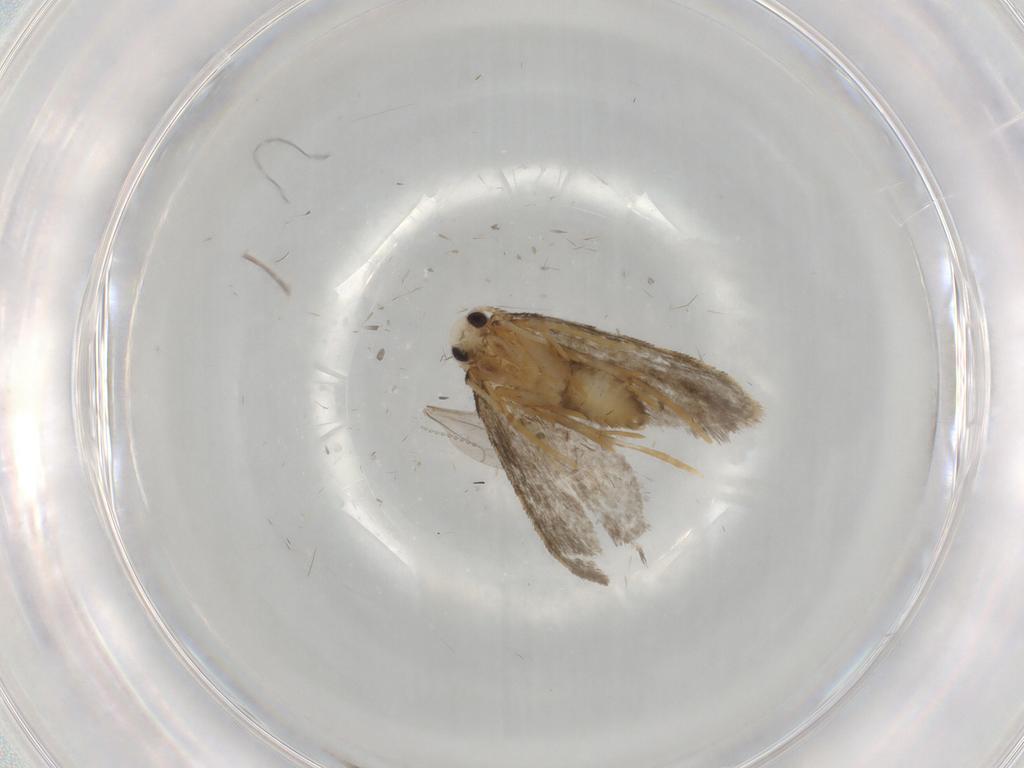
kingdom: Animalia
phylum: Arthropoda
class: Insecta
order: Lepidoptera
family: Psychidae
